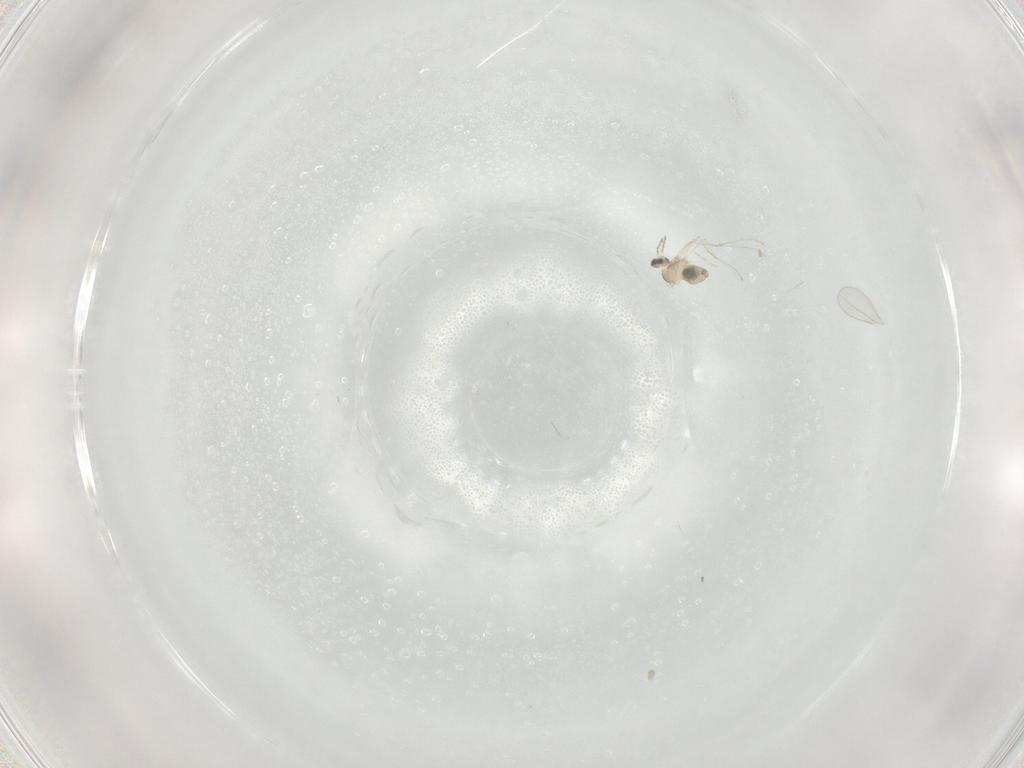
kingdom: Animalia
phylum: Arthropoda
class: Insecta
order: Diptera
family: Cecidomyiidae
